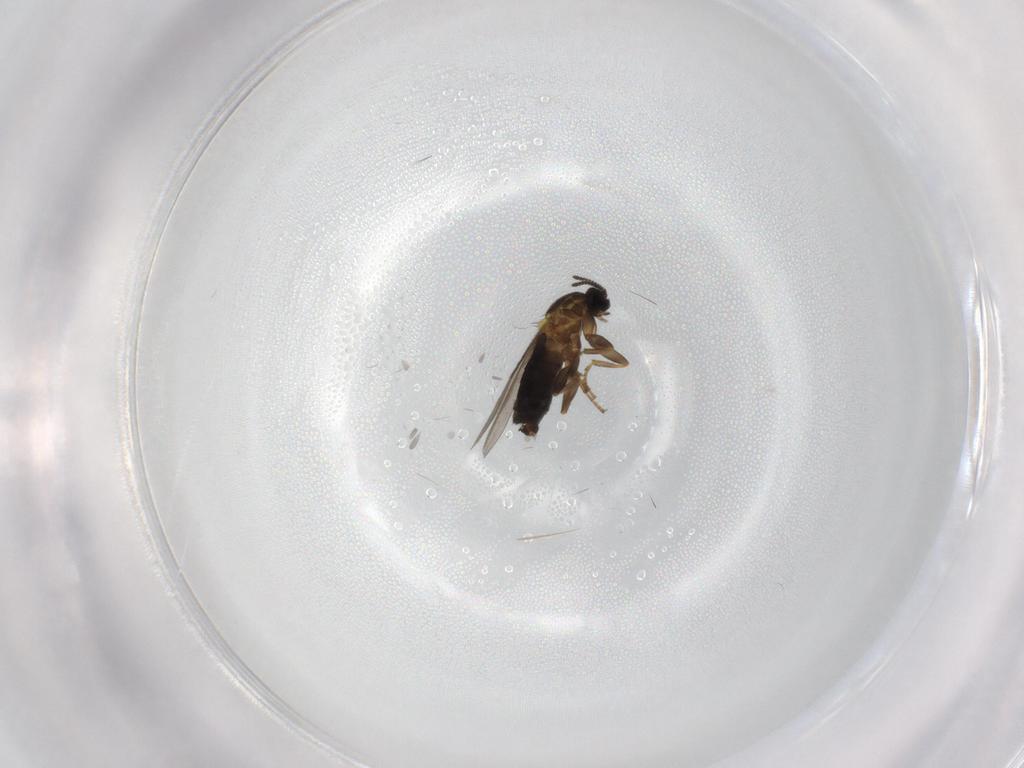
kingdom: Animalia
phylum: Arthropoda
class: Insecta
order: Diptera
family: Scatopsidae
